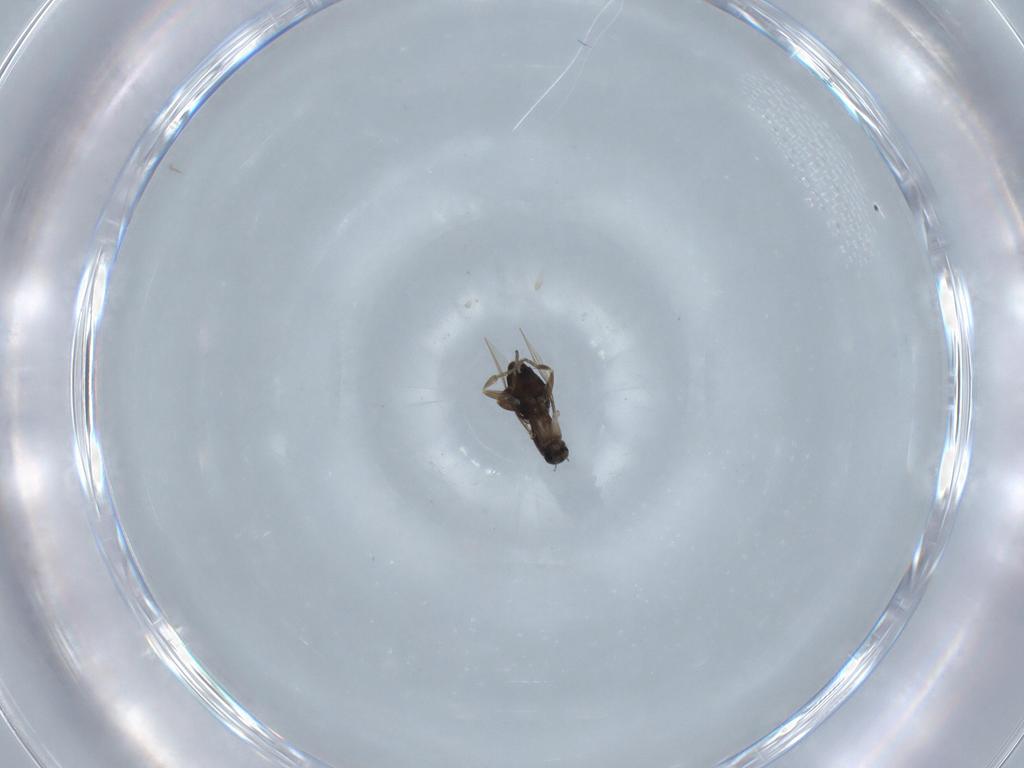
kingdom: Animalia
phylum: Arthropoda
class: Insecta
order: Diptera
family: Phoridae
